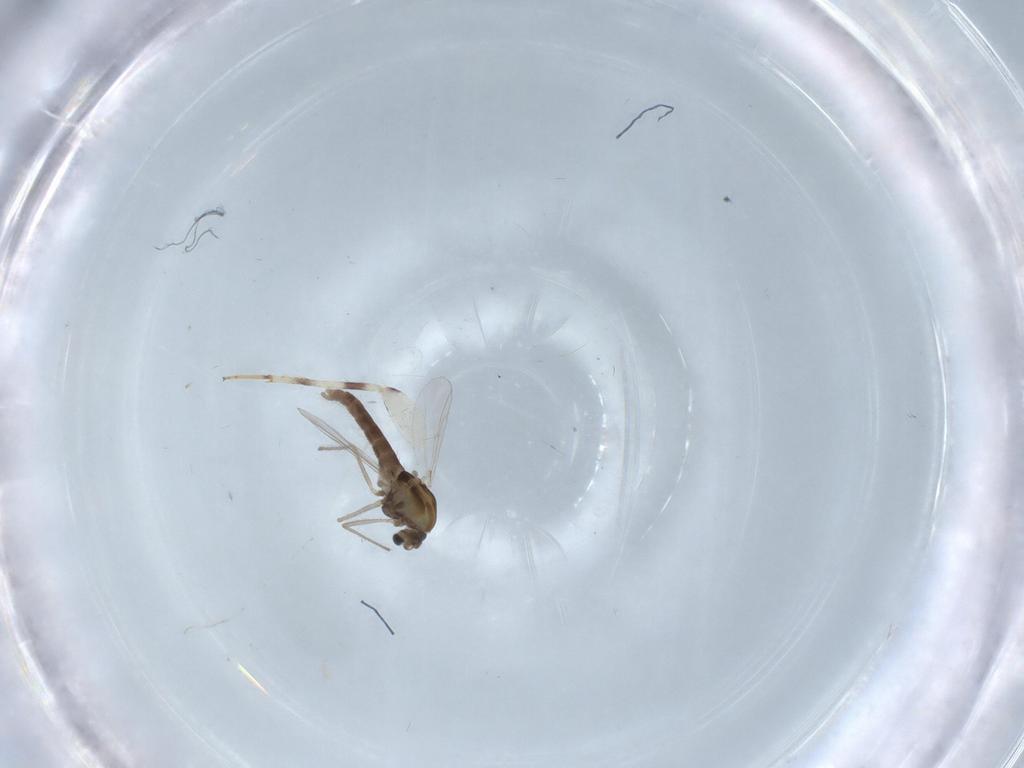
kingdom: Animalia
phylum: Arthropoda
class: Insecta
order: Diptera
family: Chironomidae
